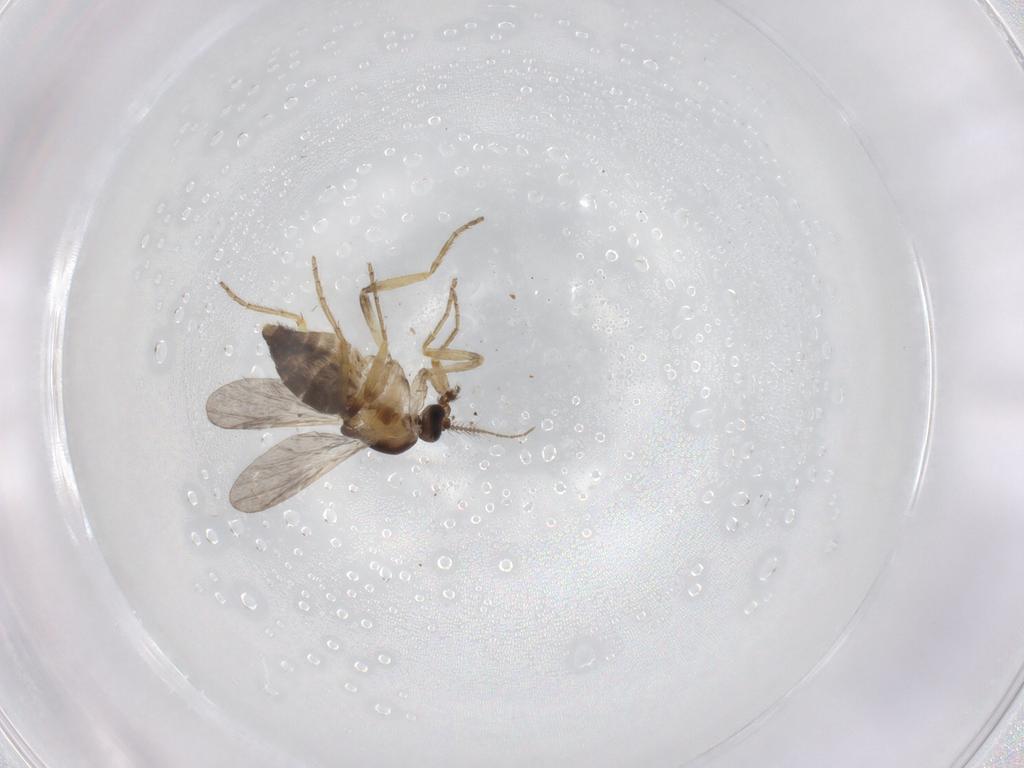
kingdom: Animalia
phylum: Arthropoda
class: Insecta
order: Diptera
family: Ceratopogonidae
